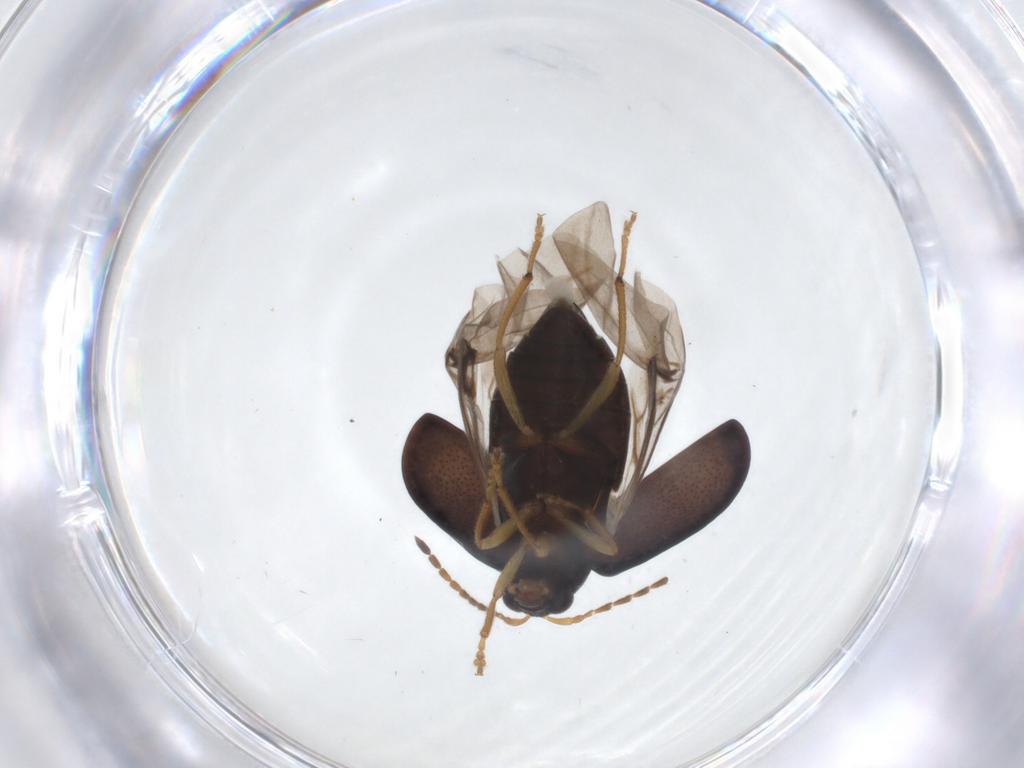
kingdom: Animalia
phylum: Arthropoda
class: Insecta
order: Coleoptera
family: Chrysomelidae
